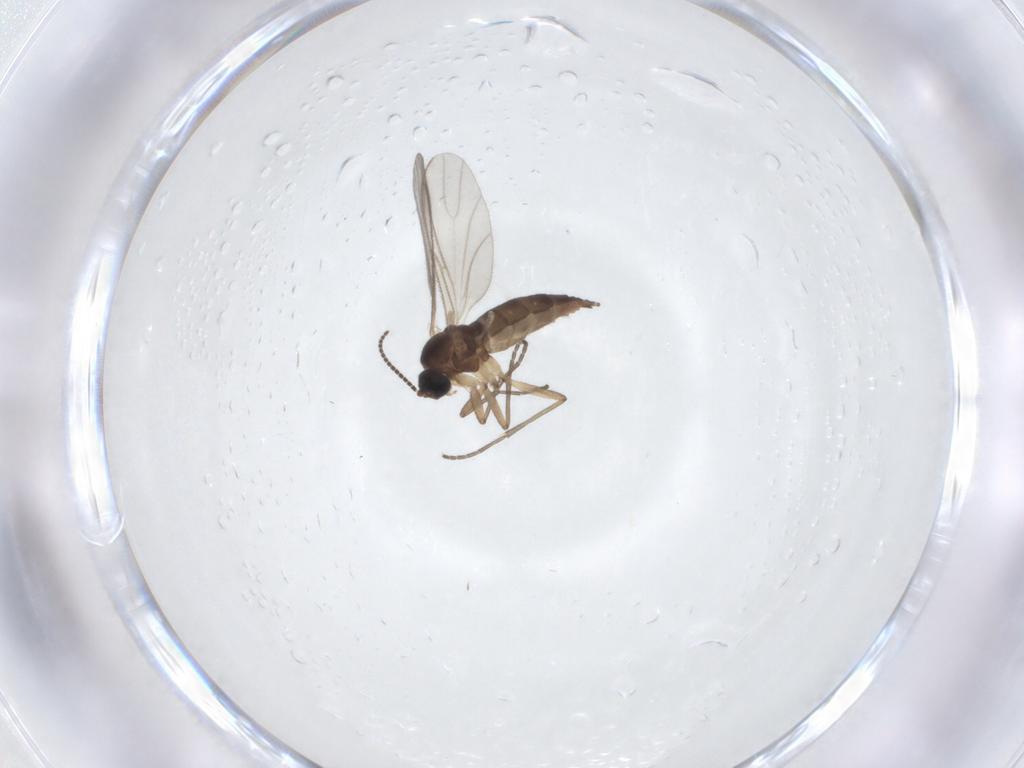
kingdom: Animalia
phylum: Arthropoda
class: Insecta
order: Diptera
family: Sciaridae
